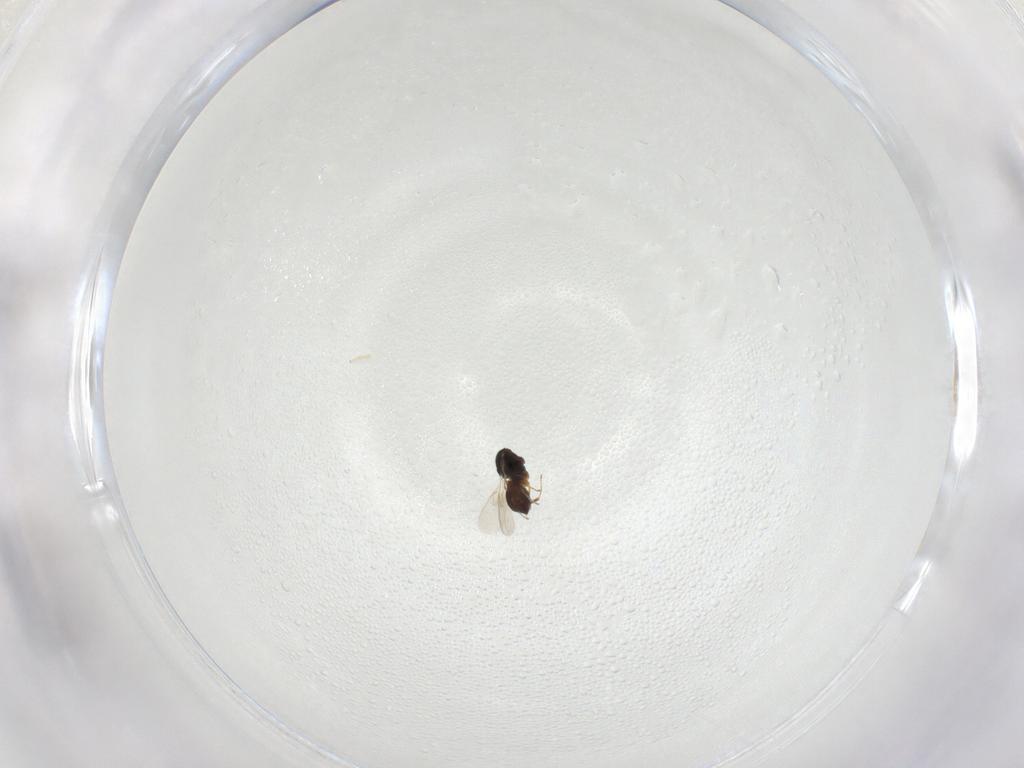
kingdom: Animalia
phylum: Arthropoda
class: Insecta
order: Hymenoptera
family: Scelionidae
